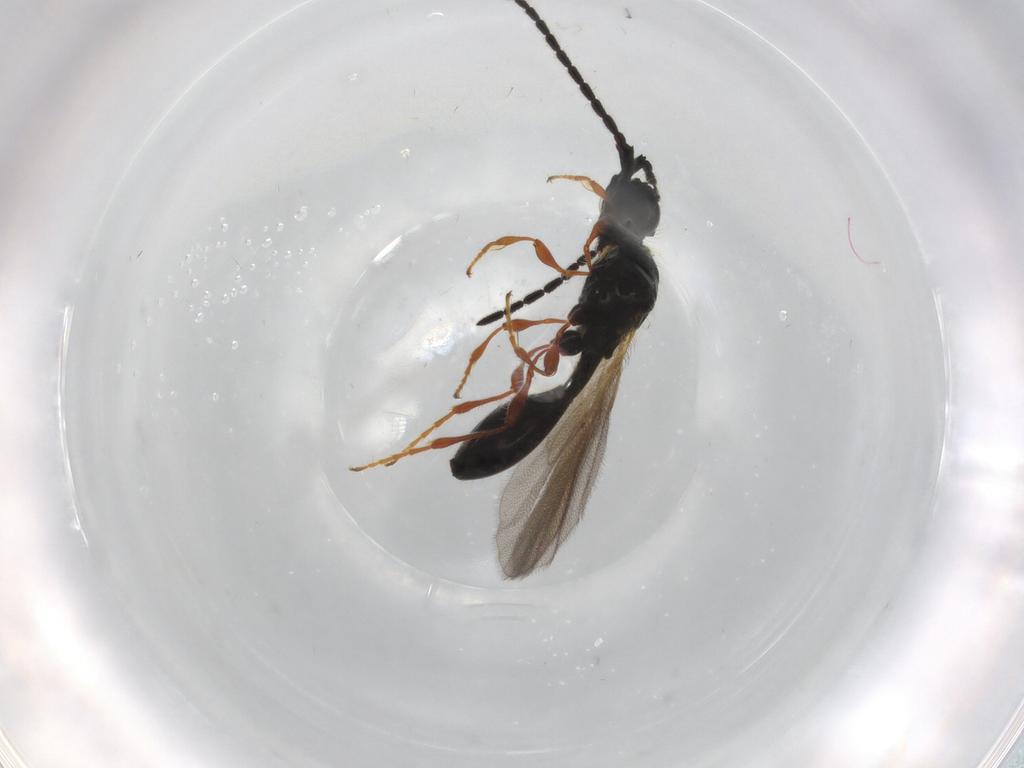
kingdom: Animalia
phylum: Arthropoda
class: Insecta
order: Hymenoptera
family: Diapriidae
